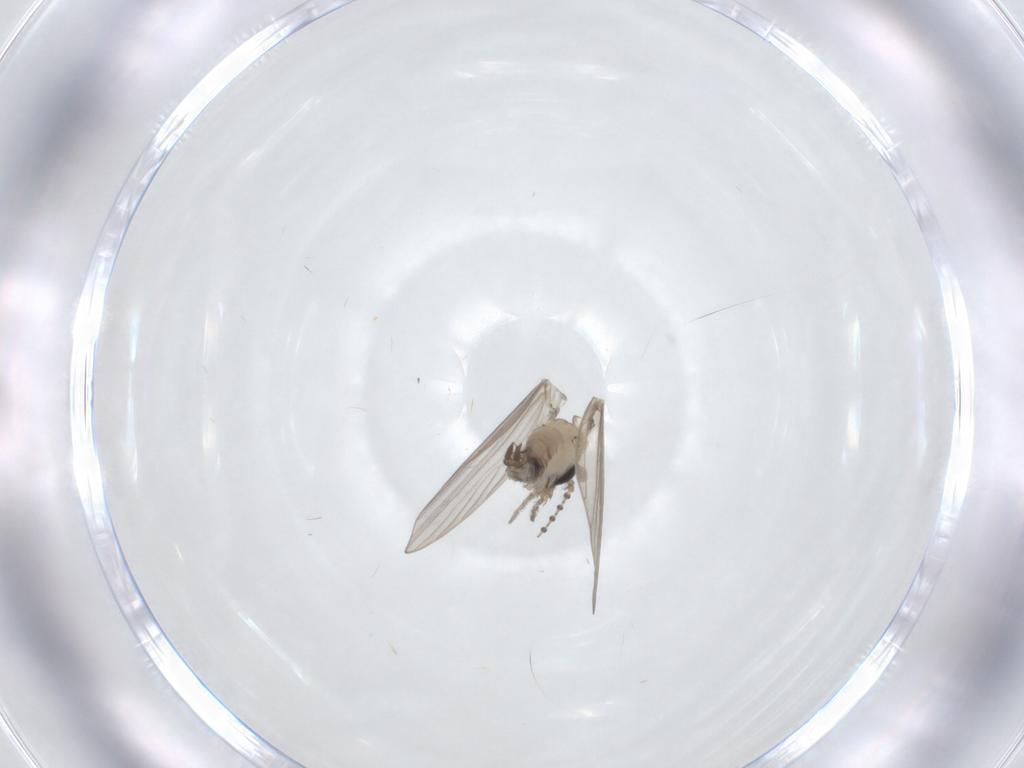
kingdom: Animalia
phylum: Arthropoda
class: Insecta
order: Diptera
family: Psychodidae
